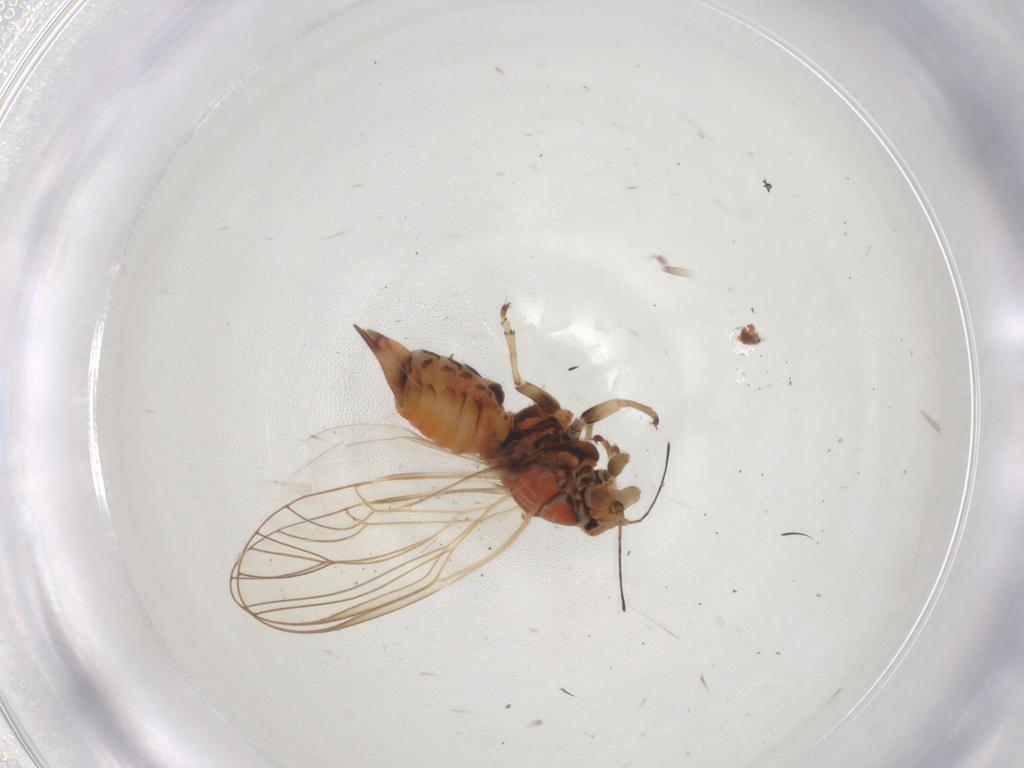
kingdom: Animalia
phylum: Arthropoda
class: Insecta
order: Hemiptera
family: Psyllidae
